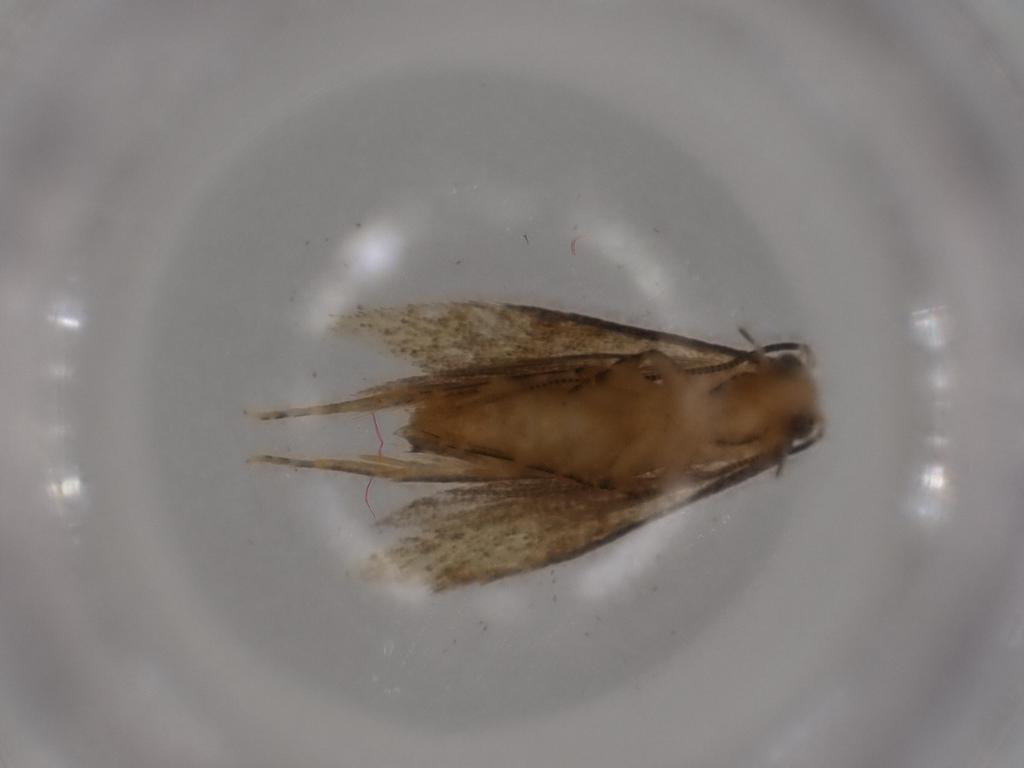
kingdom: Animalia
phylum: Arthropoda
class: Insecta
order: Lepidoptera
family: Tineidae
